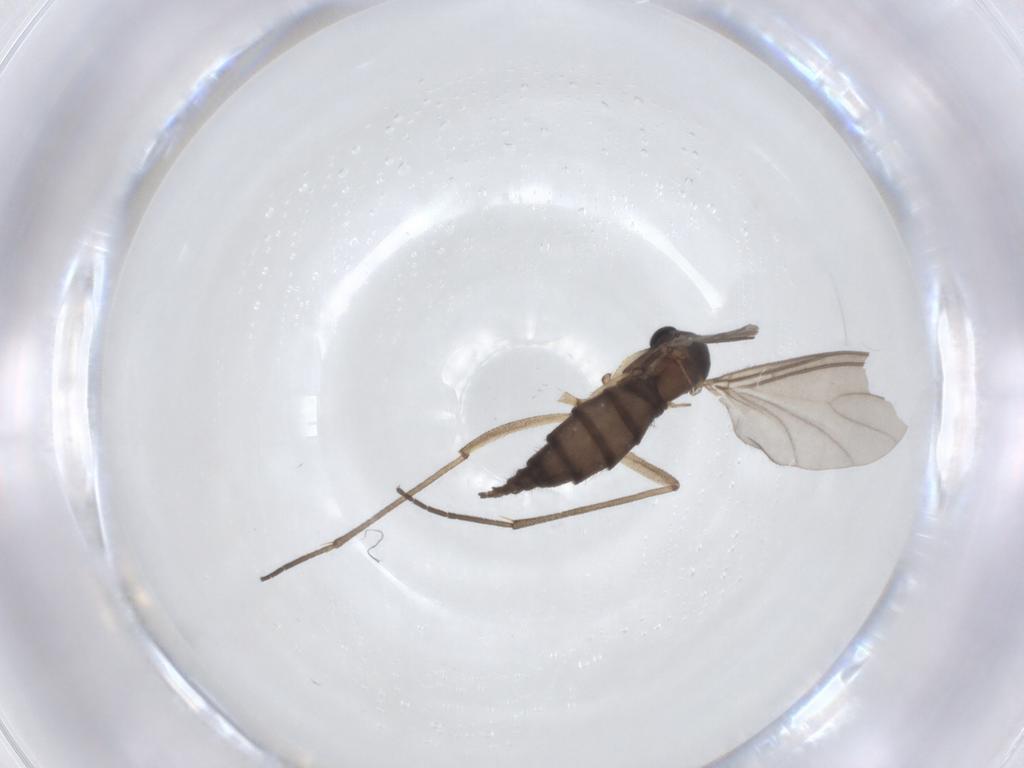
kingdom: Animalia
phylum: Arthropoda
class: Insecta
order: Diptera
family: Sciaridae
